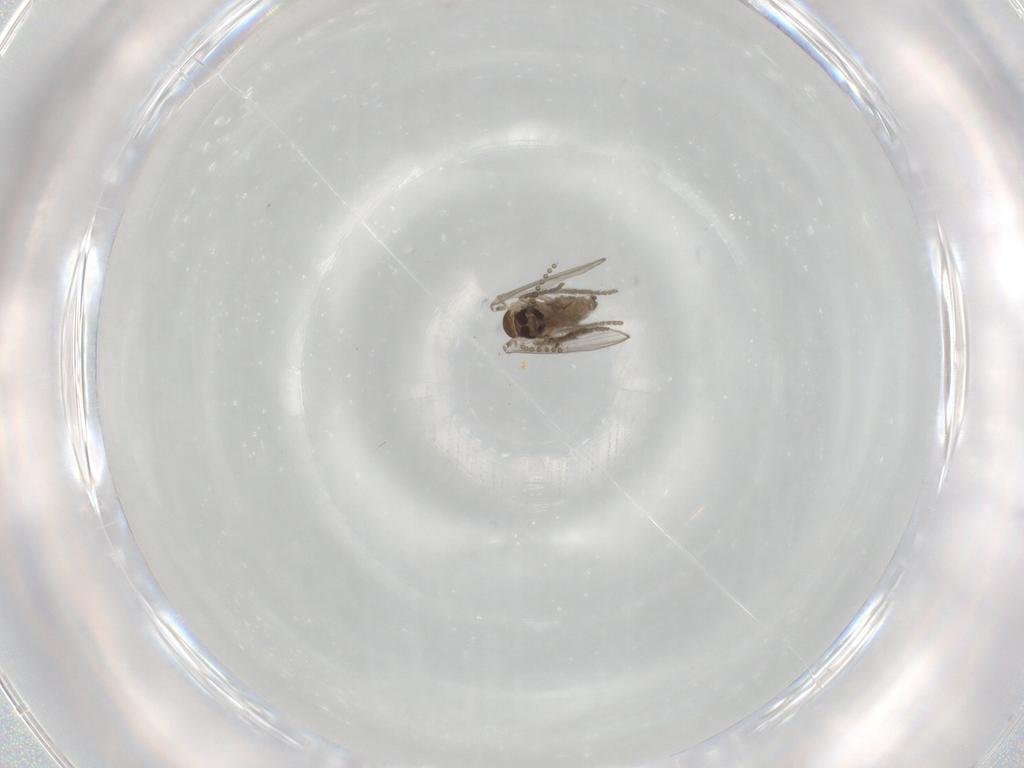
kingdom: Animalia
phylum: Arthropoda
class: Insecta
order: Diptera
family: Psychodidae
